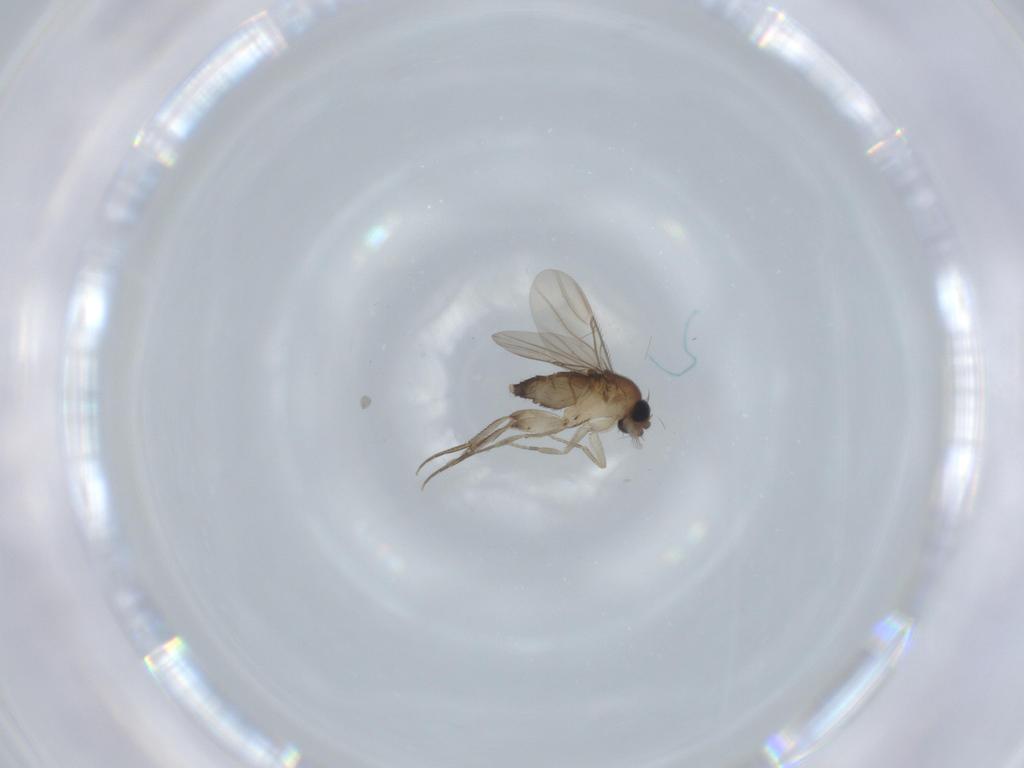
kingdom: Animalia
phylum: Arthropoda
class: Insecta
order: Diptera
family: Phoridae
